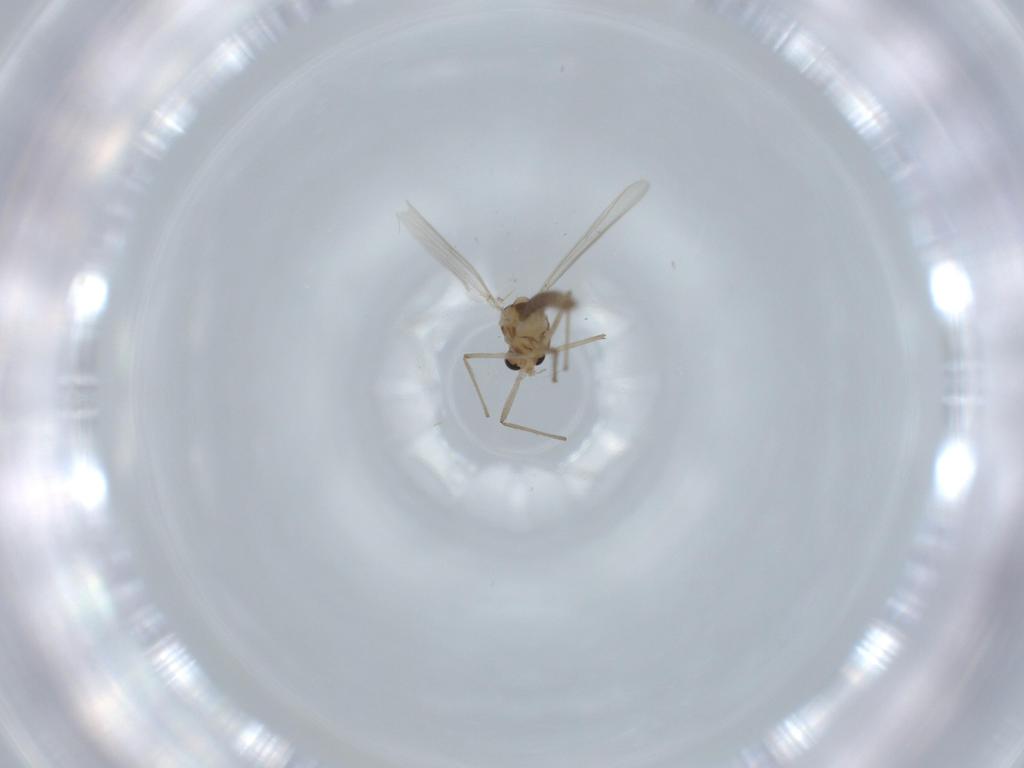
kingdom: Animalia
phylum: Arthropoda
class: Insecta
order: Diptera
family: Chironomidae
